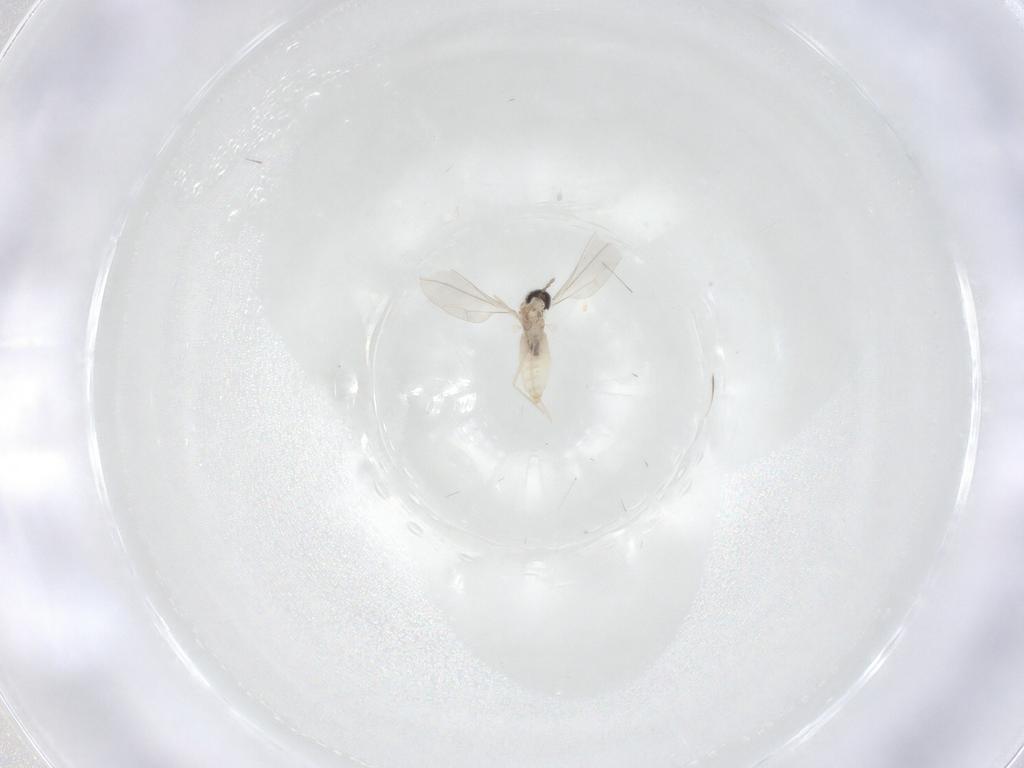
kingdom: Animalia
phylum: Arthropoda
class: Insecta
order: Diptera
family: Cecidomyiidae
